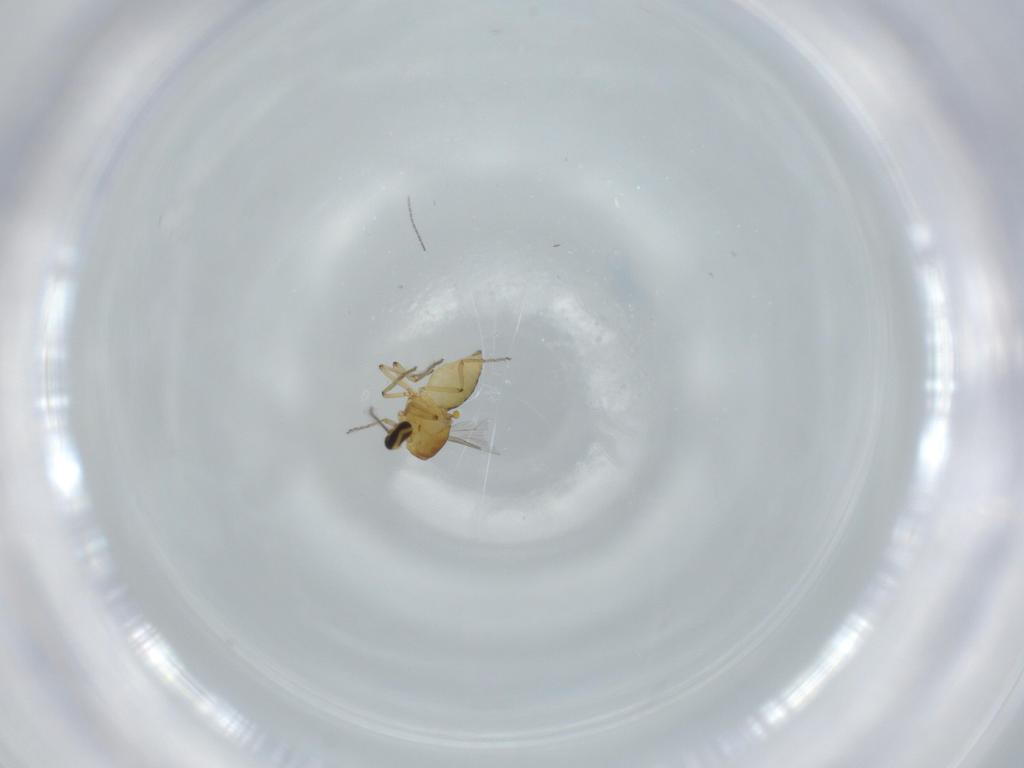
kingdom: Animalia
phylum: Arthropoda
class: Insecta
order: Diptera
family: Ceratopogonidae
